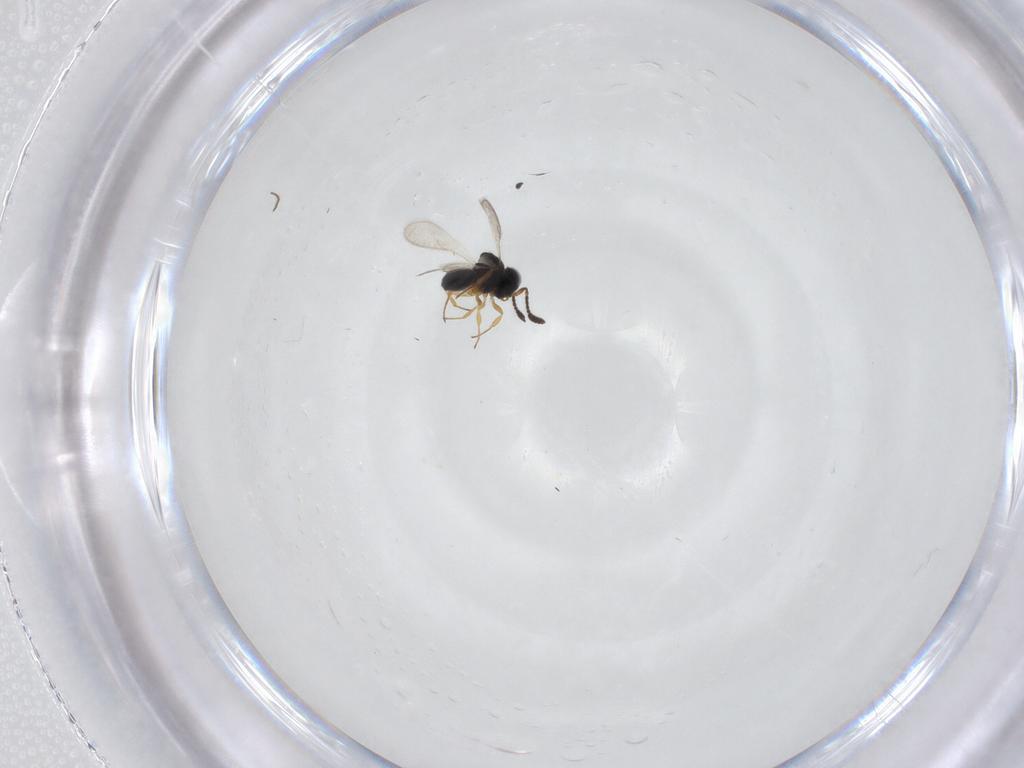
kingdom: Animalia
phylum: Arthropoda
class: Insecta
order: Hymenoptera
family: Scelionidae
